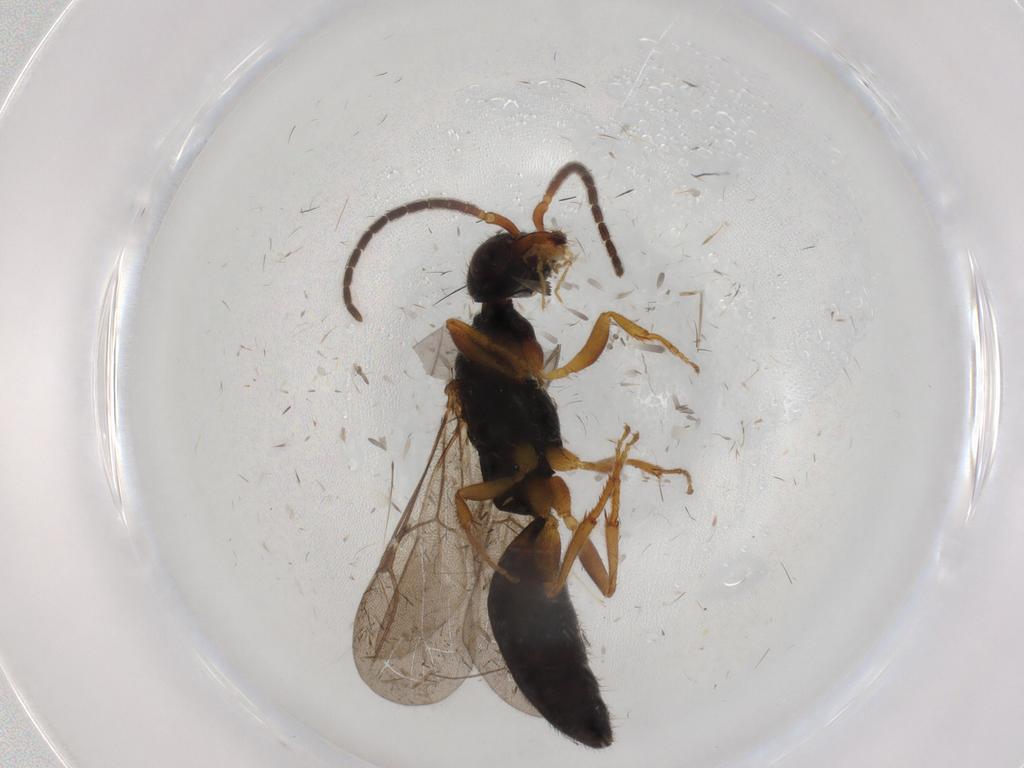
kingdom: Animalia
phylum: Arthropoda
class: Insecta
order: Hymenoptera
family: Bethylidae
